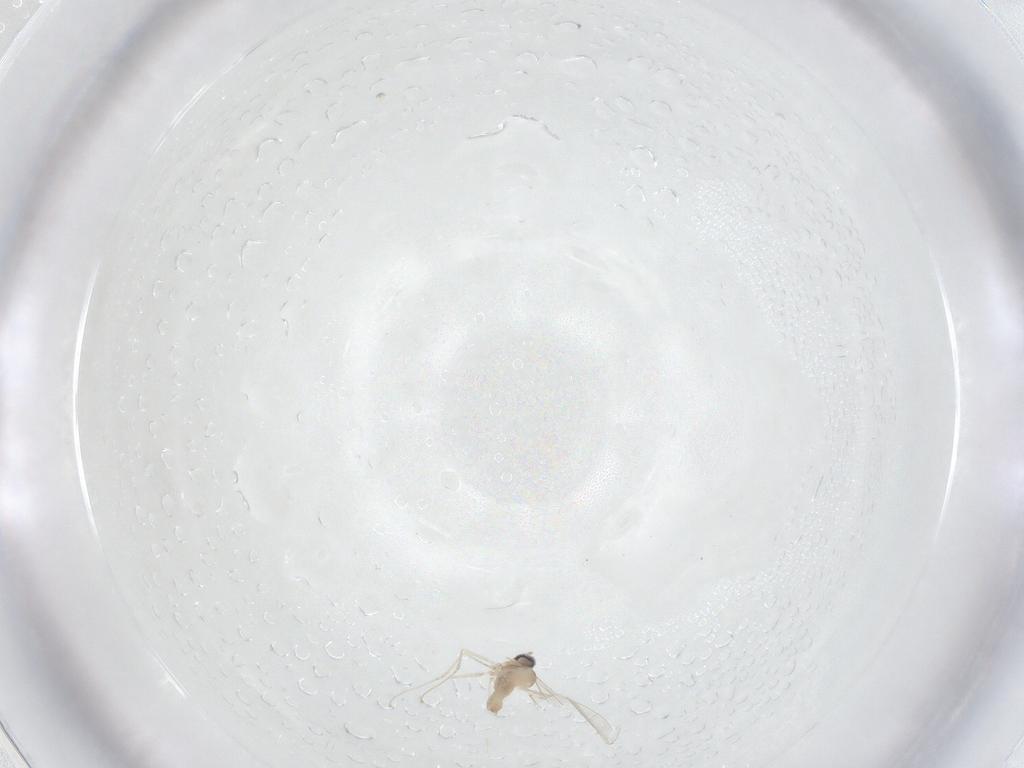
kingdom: Animalia
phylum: Arthropoda
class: Insecta
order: Diptera
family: Cecidomyiidae
